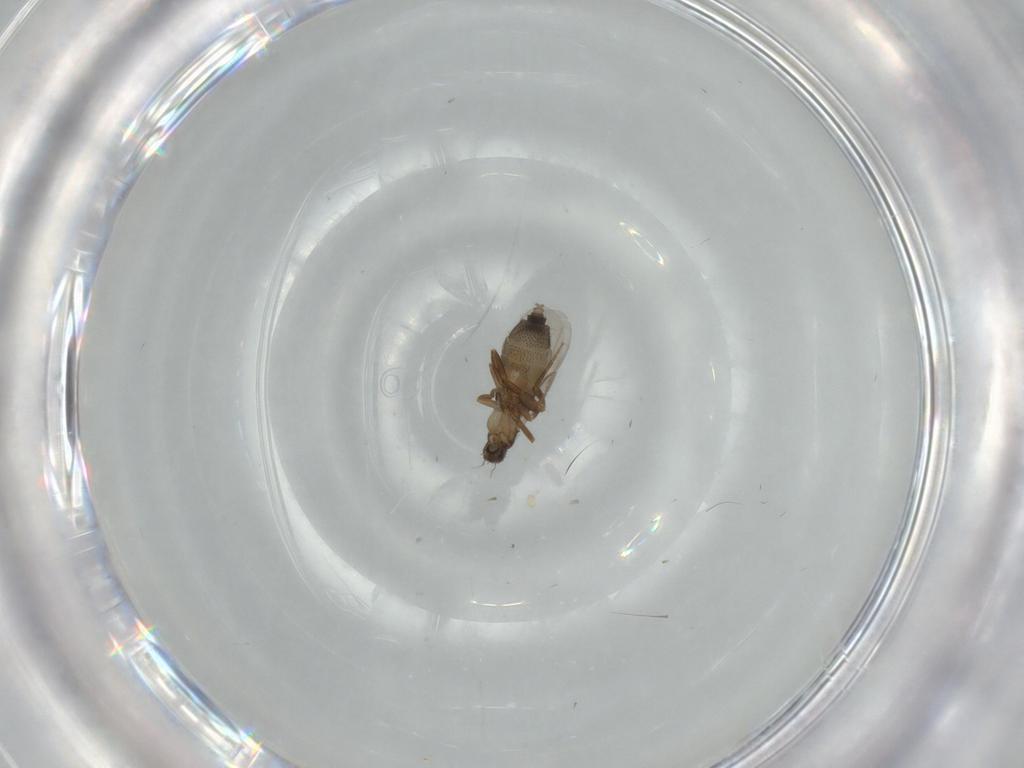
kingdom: Animalia
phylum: Arthropoda
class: Insecta
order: Diptera
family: Phoridae
